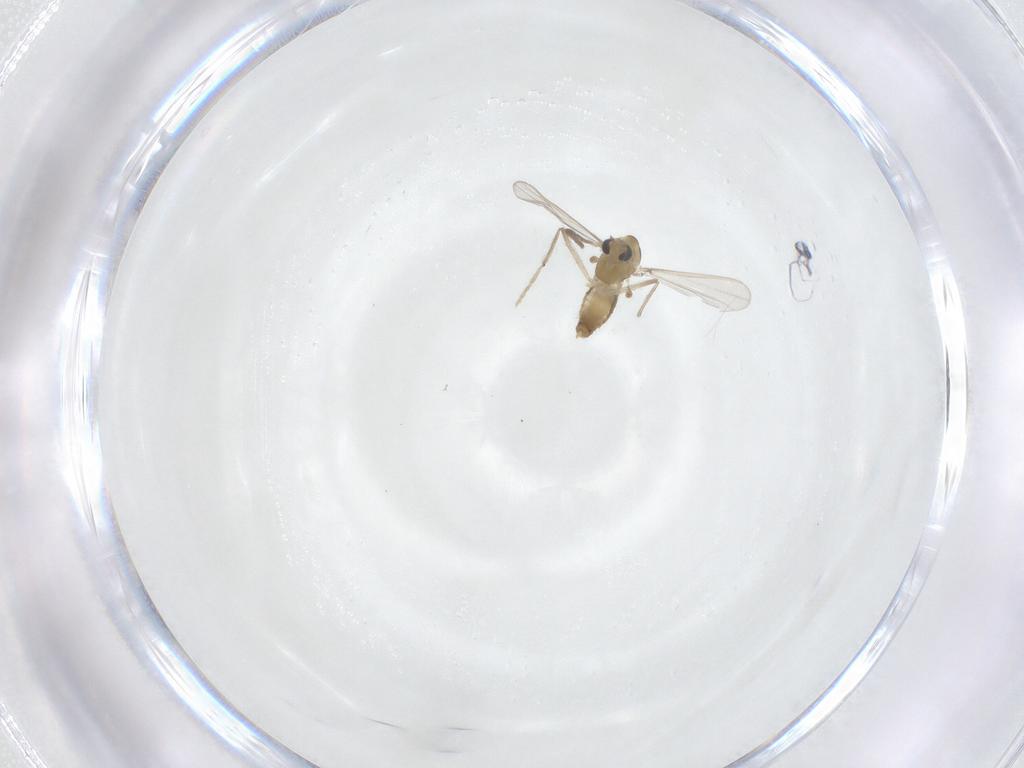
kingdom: Animalia
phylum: Arthropoda
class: Insecta
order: Diptera
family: Chironomidae
